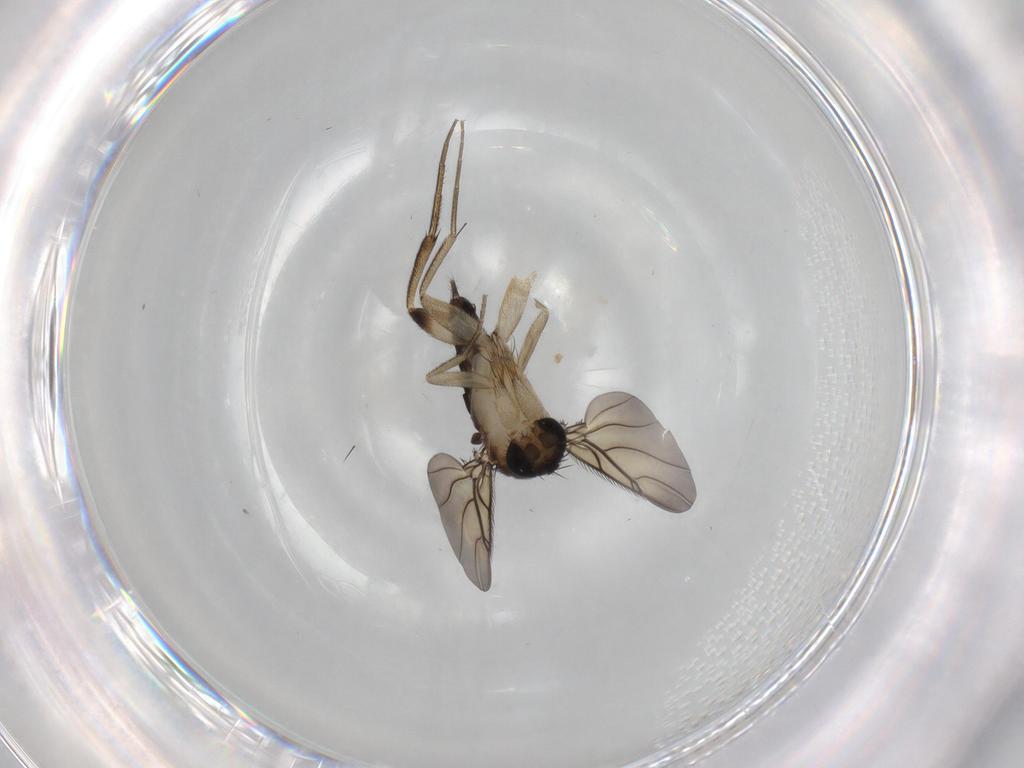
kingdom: Animalia
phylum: Arthropoda
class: Insecta
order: Diptera
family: Phoridae
